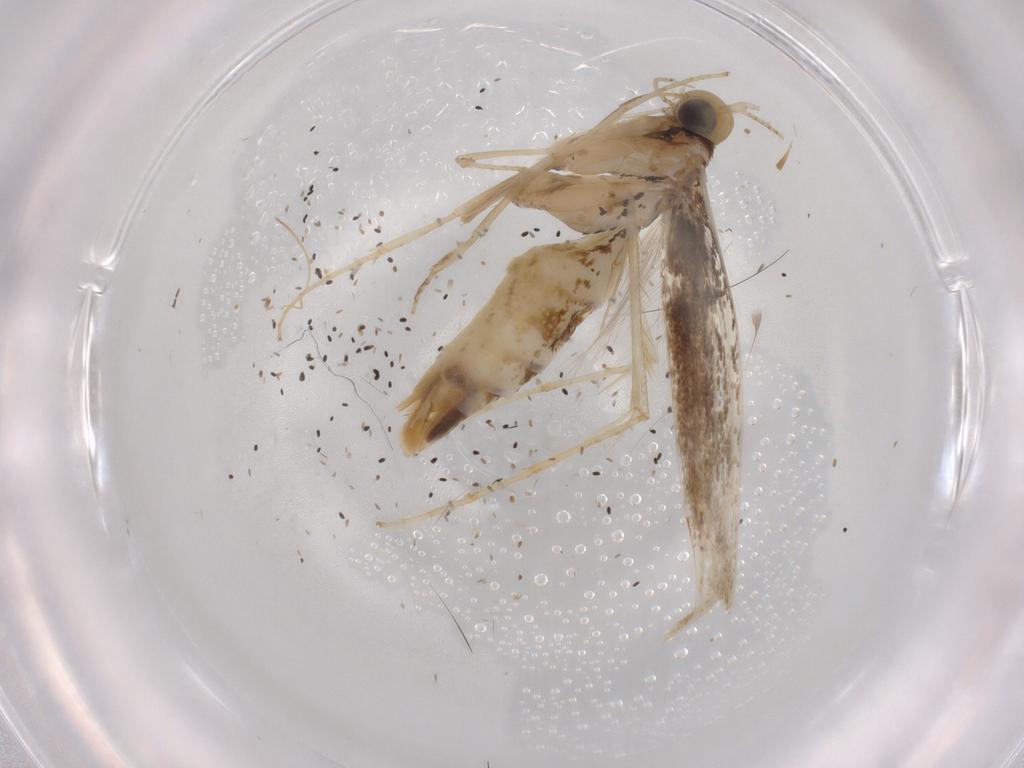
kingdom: Animalia
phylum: Arthropoda
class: Insecta
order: Lepidoptera
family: Gracillariidae
